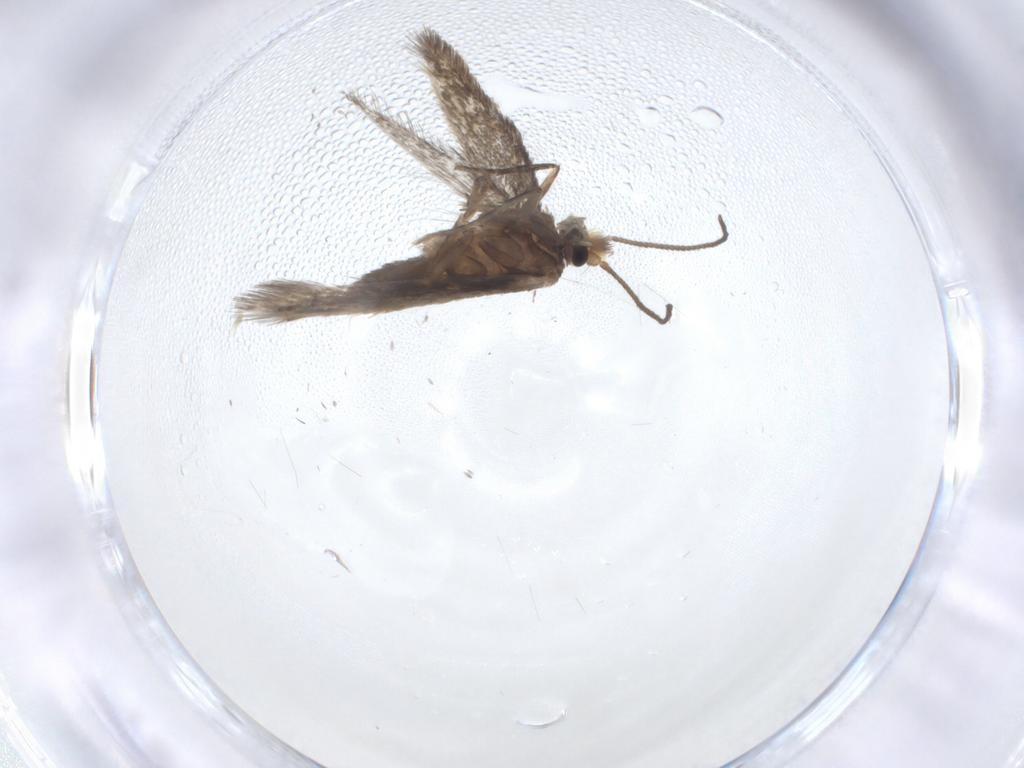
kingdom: Animalia
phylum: Arthropoda
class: Insecta
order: Lepidoptera
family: Nepticulidae
